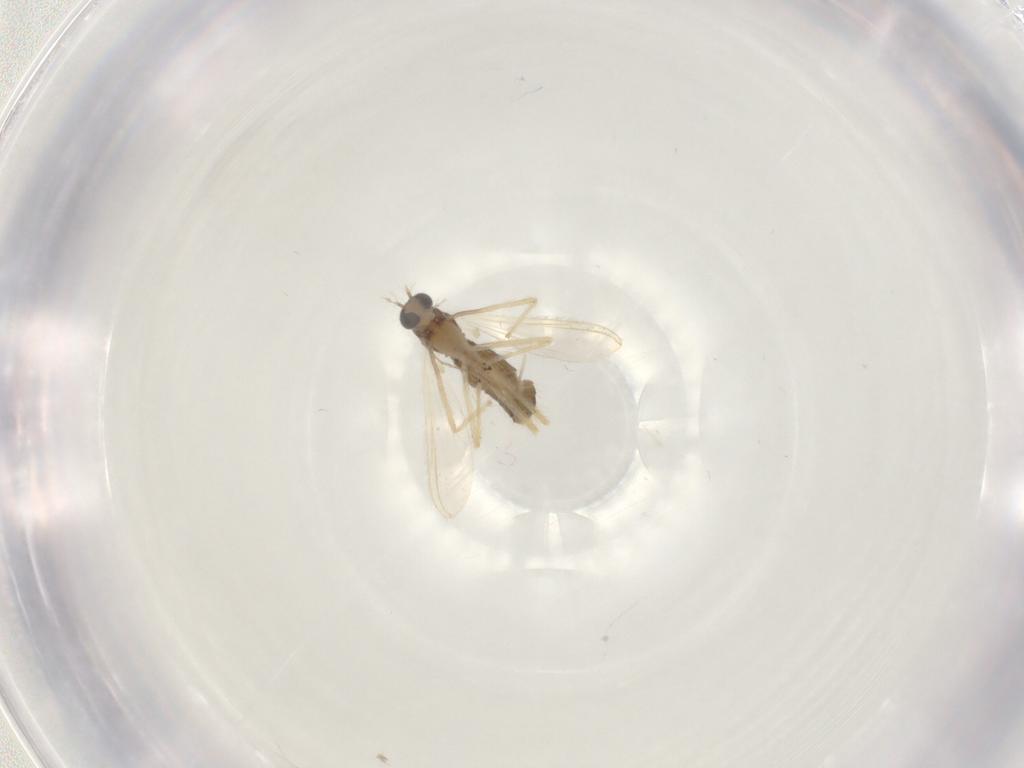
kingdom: Animalia
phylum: Arthropoda
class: Insecta
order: Diptera
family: Chironomidae
